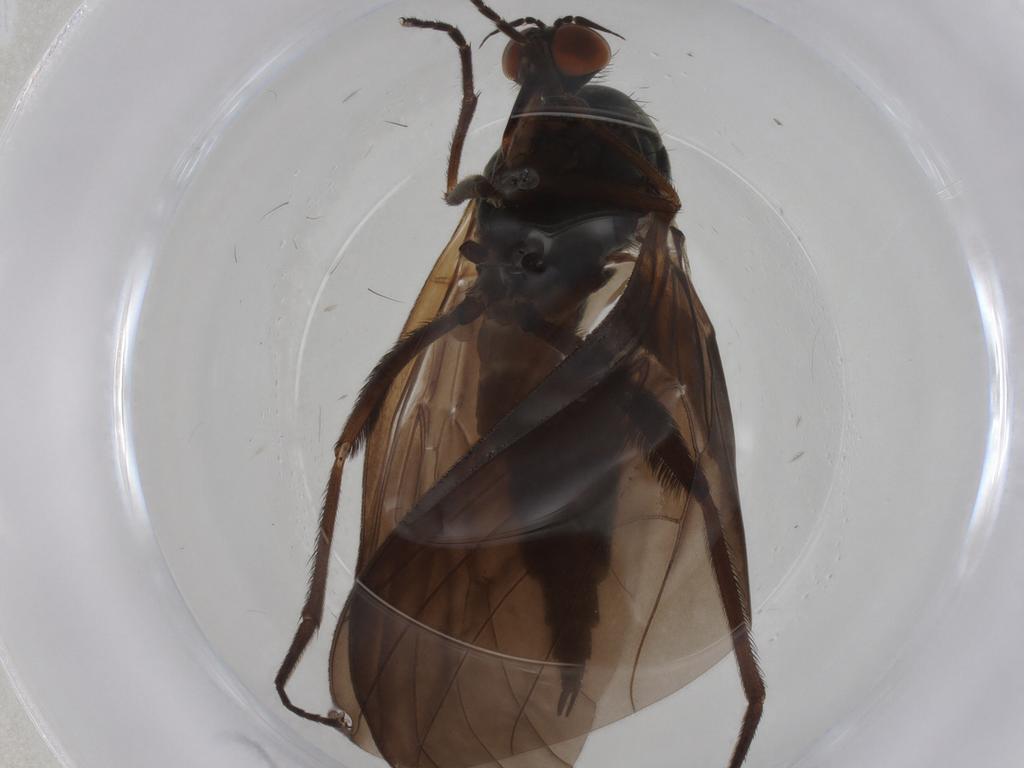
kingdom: Animalia
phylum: Arthropoda
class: Insecta
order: Diptera
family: Empididae
